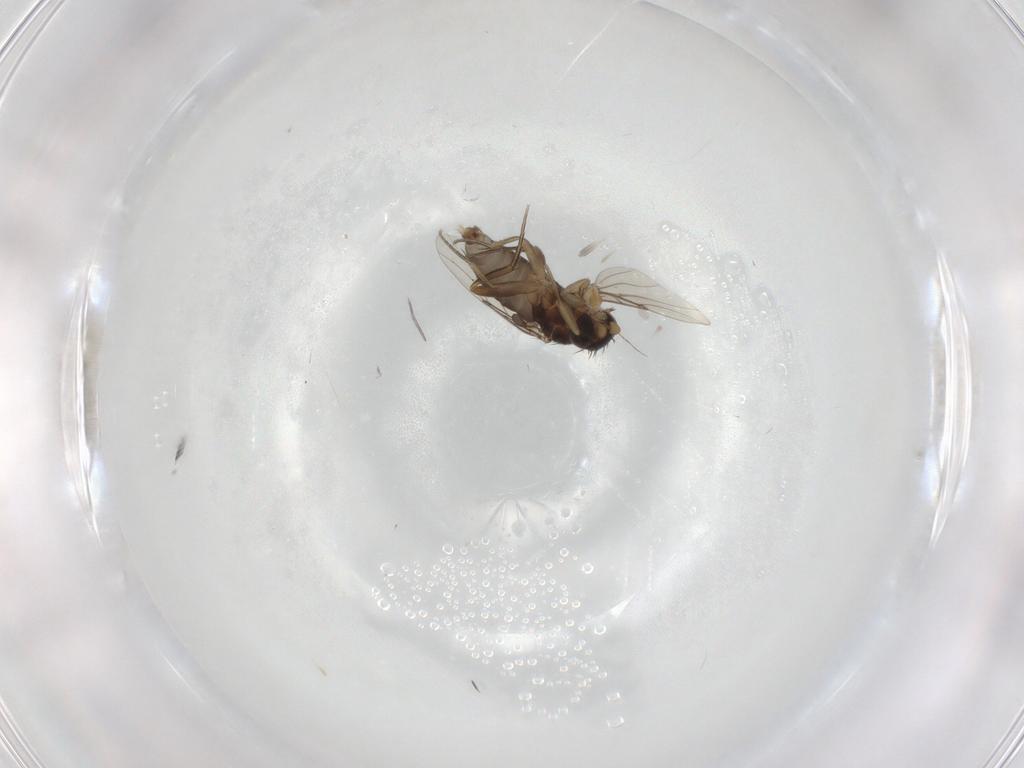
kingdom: Animalia
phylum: Arthropoda
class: Insecta
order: Diptera
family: Phoridae
